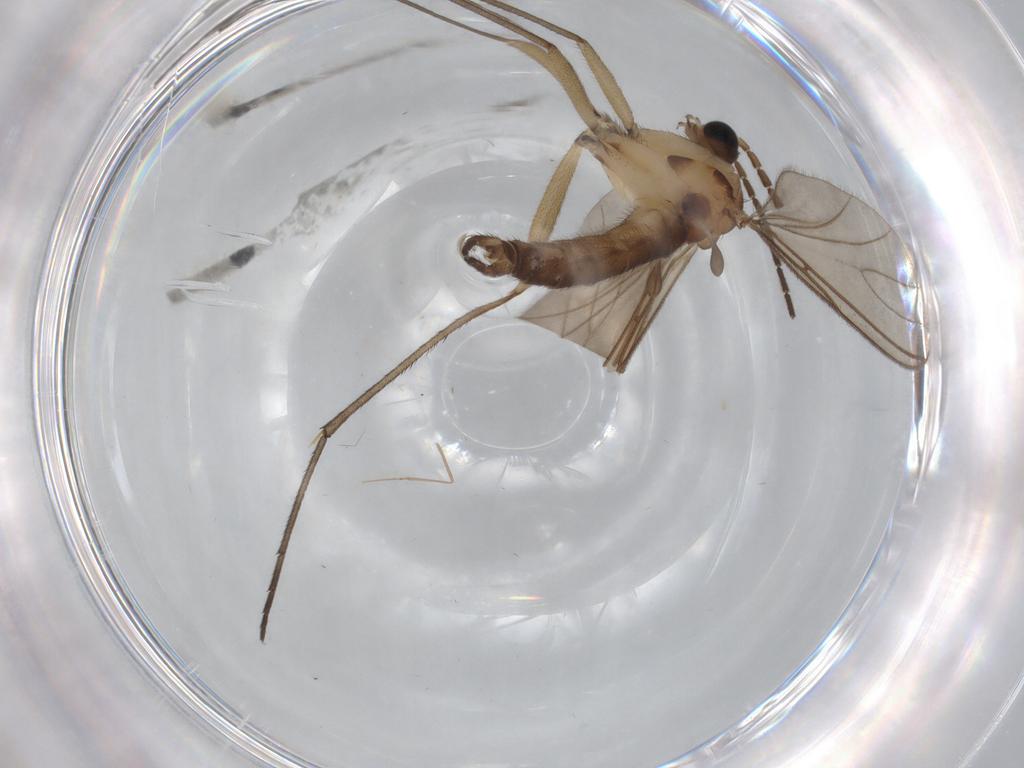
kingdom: Animalia
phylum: Arthropoda
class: Insecta
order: Diptera
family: Sciaridae
